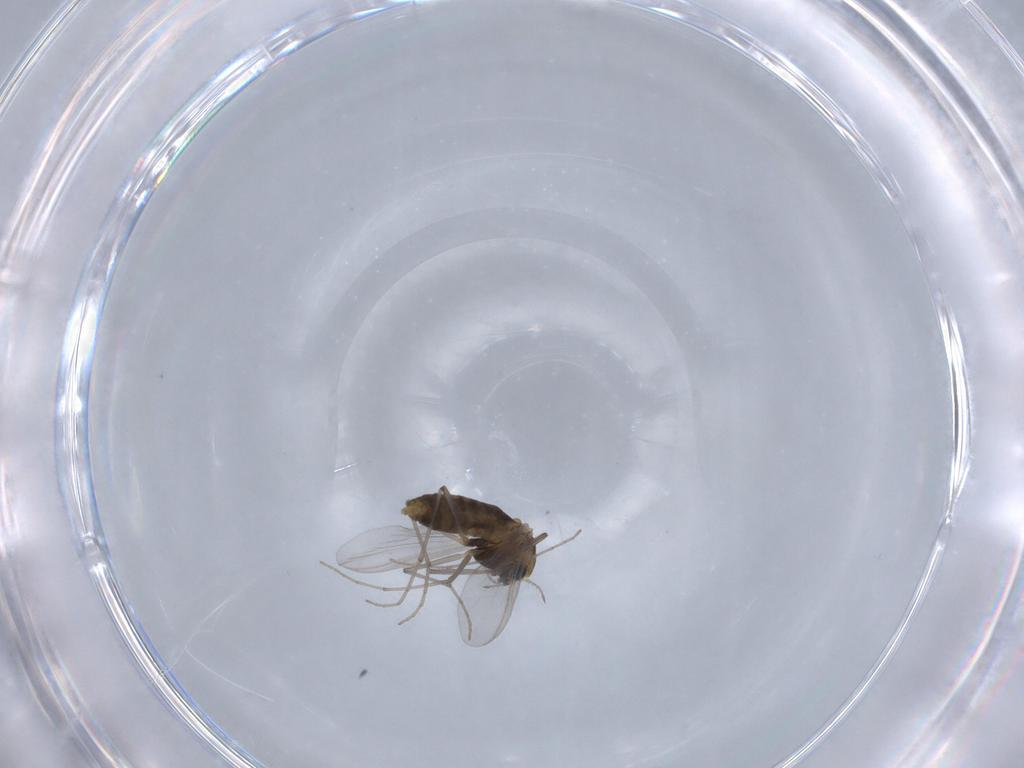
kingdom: Animalia
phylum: Arthropoda
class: Insecta
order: Diptera
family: Chironomidae
